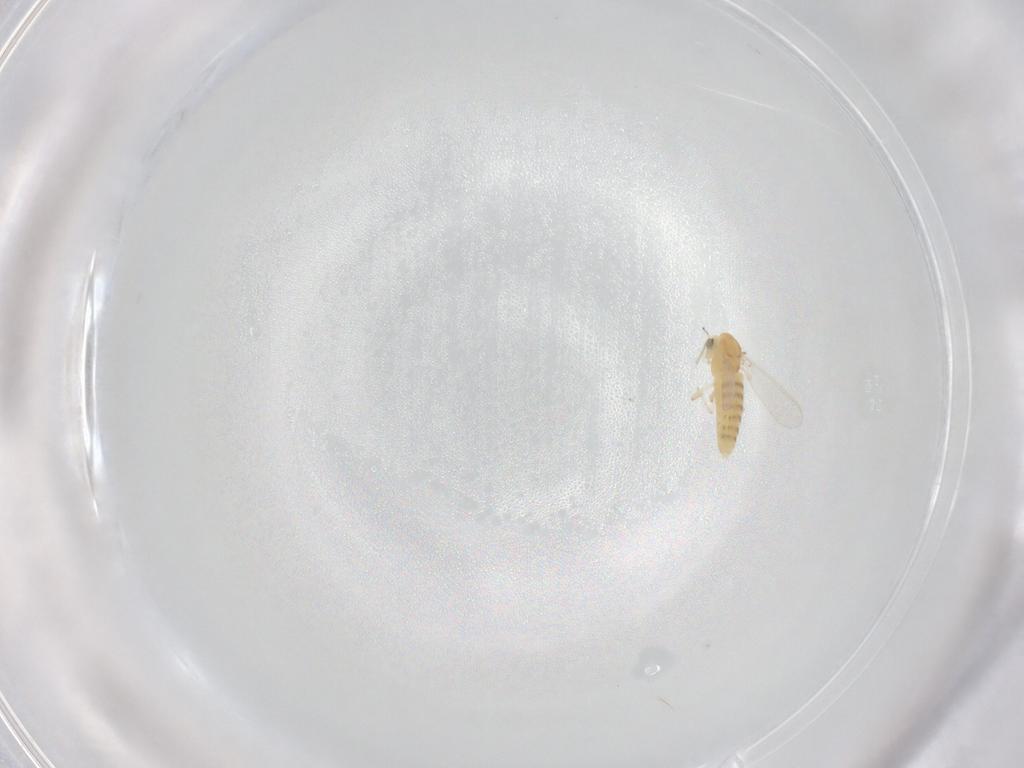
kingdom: Animalia
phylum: Arthropoda
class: Insecta
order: Diptera
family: Chironomidae
